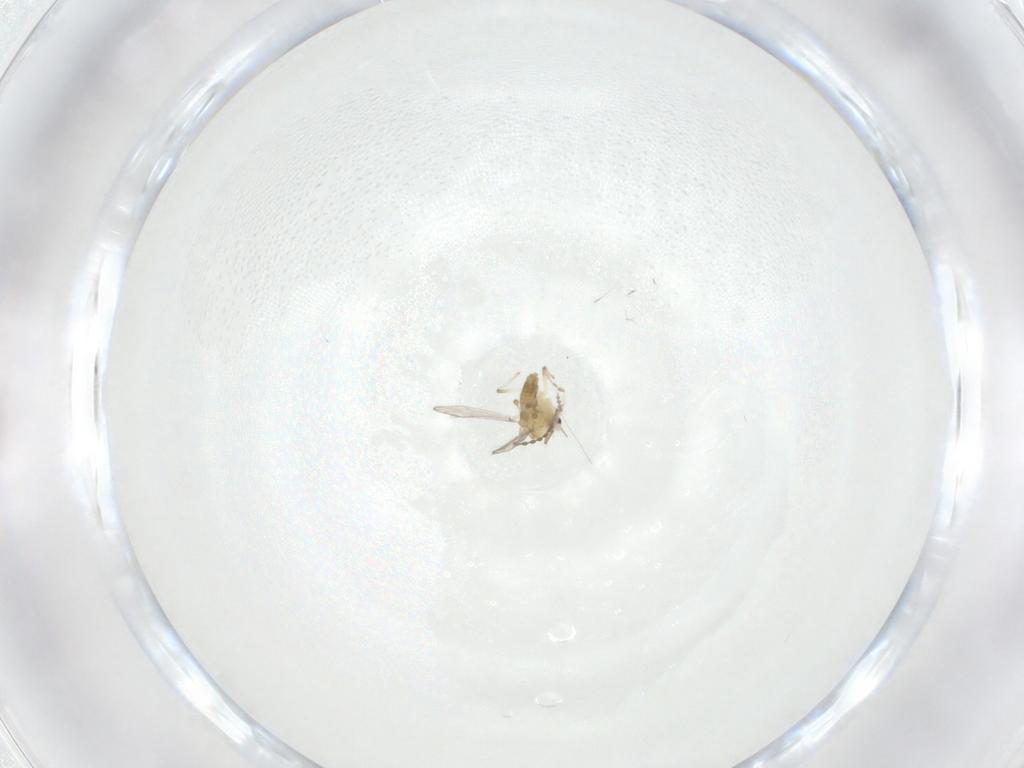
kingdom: Animalia
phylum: Arthropoda
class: Insecta
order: Diptera
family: Chironomidae
